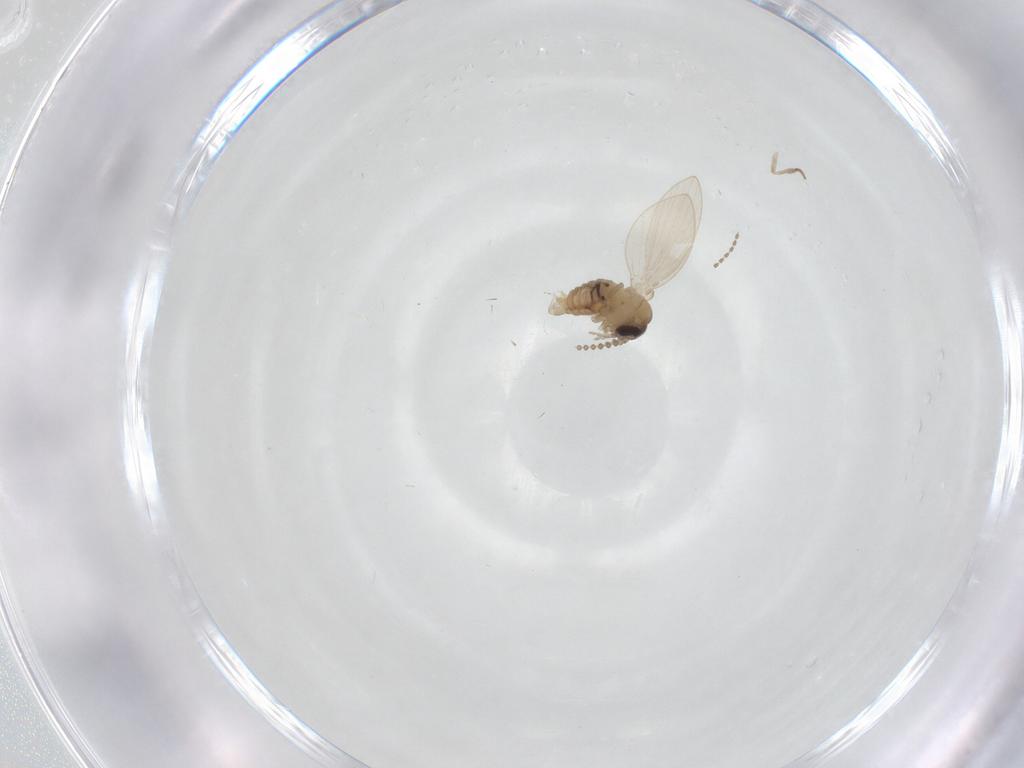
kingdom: Animalia
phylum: Arthropoda
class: Insecta
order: Diptera
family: Psychodidae
